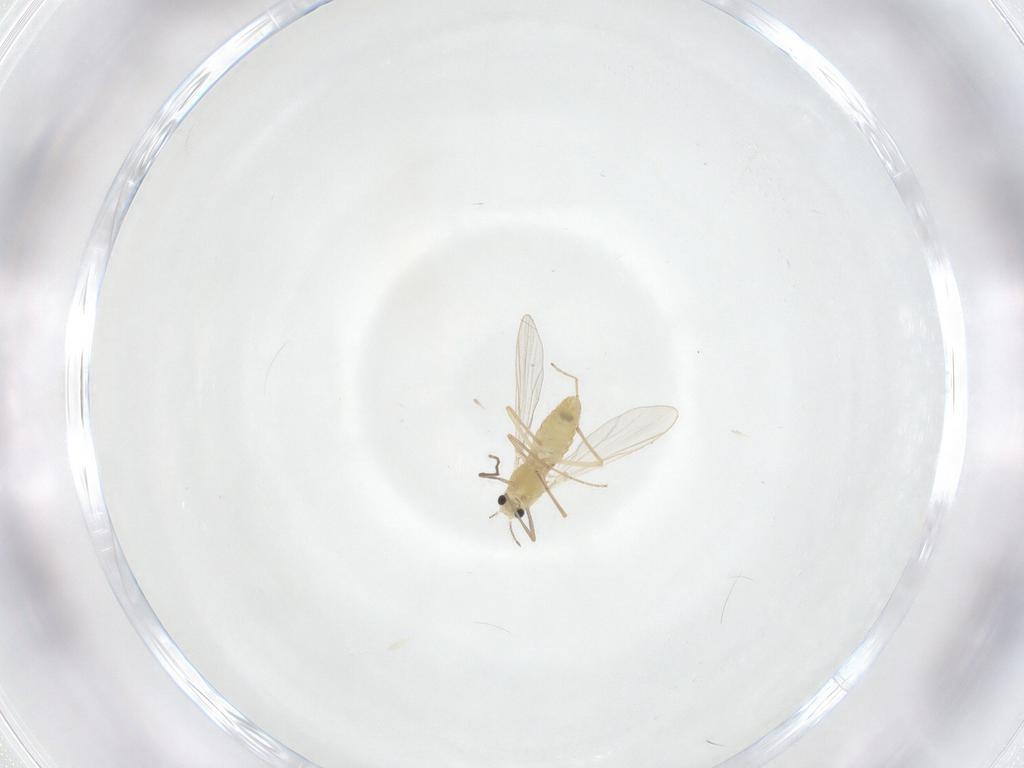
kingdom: Animalia
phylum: Arthropoda
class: Insecta
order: Diptera
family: Chironomidae
